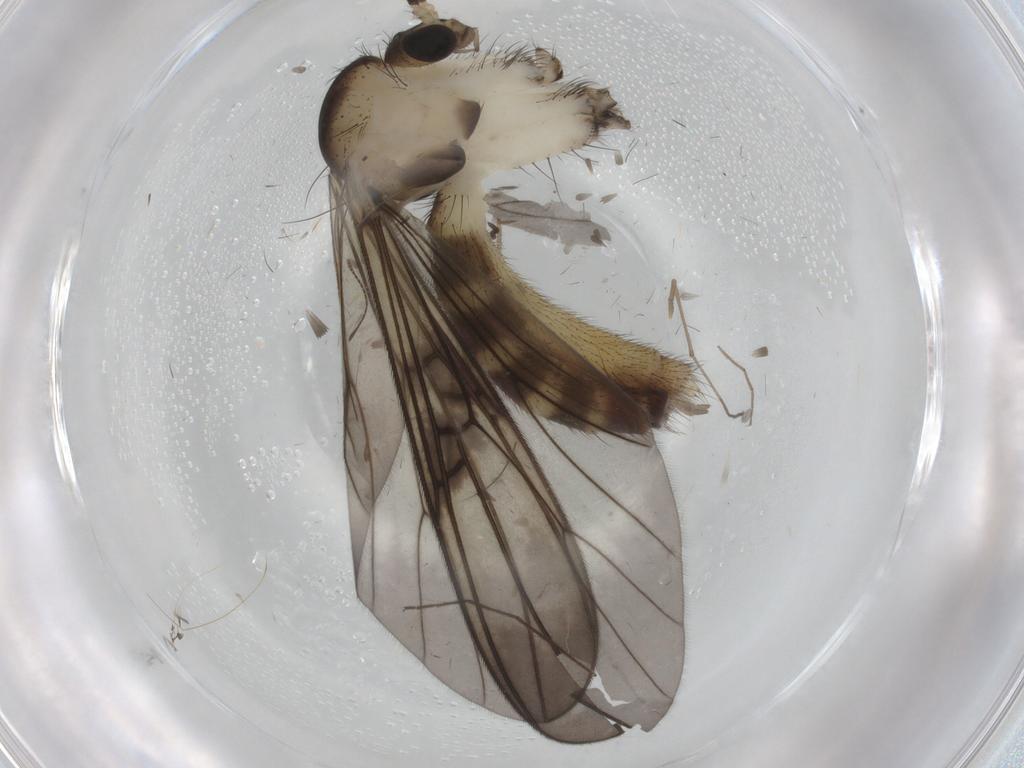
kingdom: Animalia
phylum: Arthropoda
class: Insecta
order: Diptera
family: Mycetophilidae
